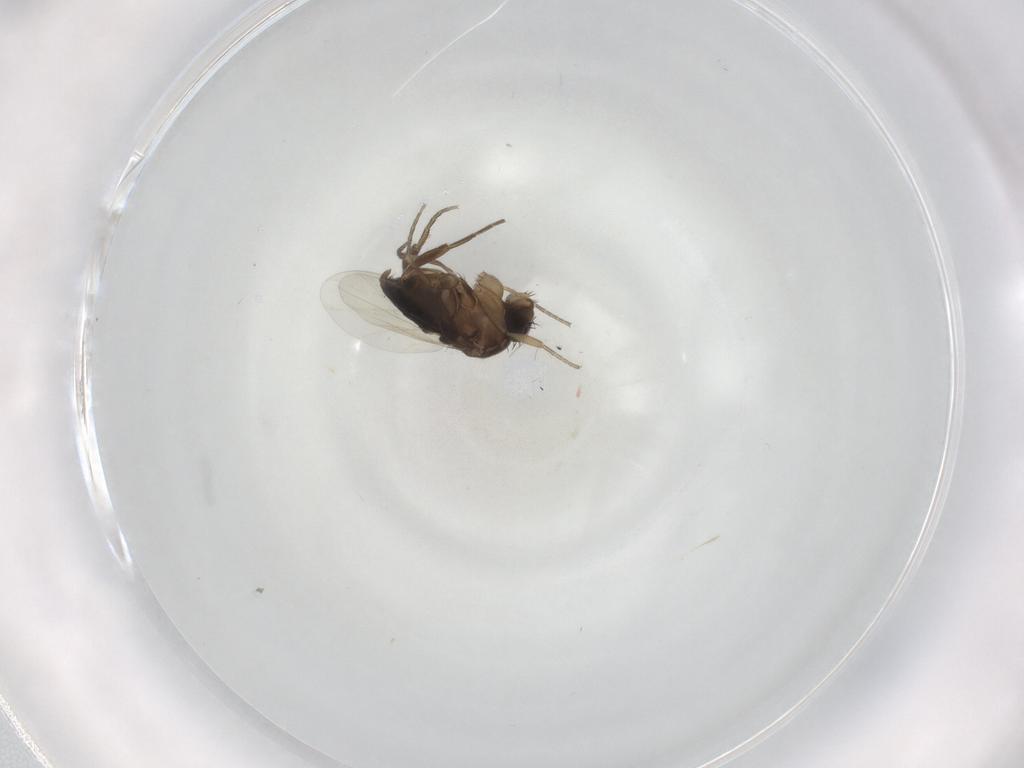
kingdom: Animalia
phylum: Arthropoda
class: Insecta
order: Diptera
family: Phoridae
